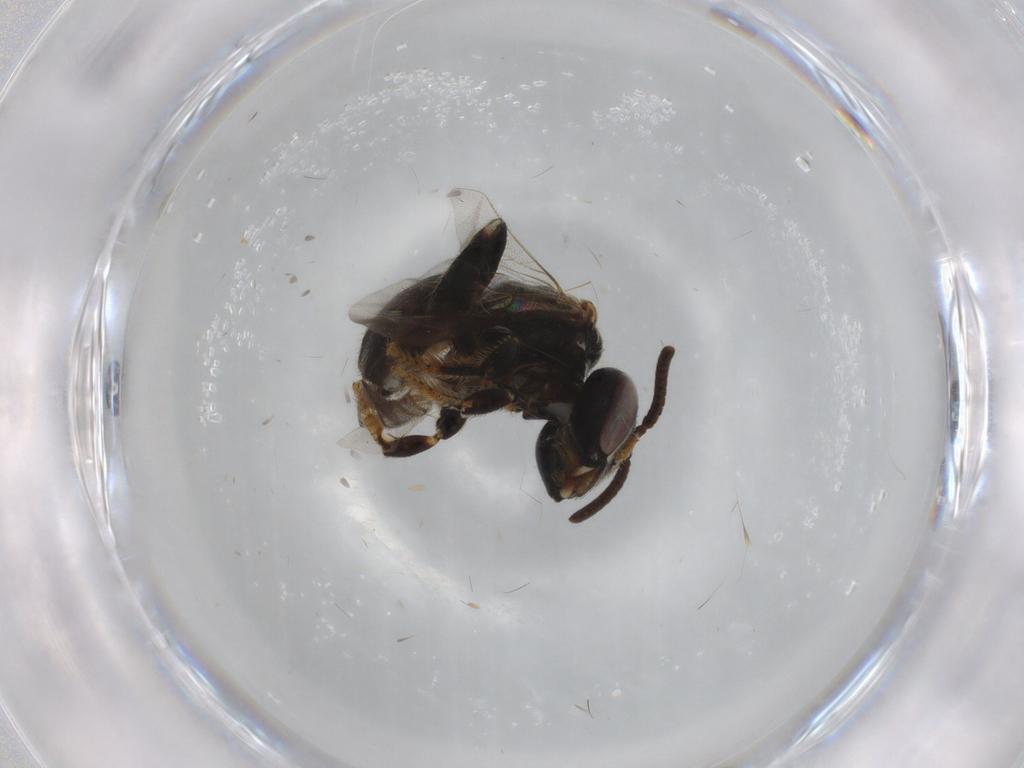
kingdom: Animalia
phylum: Arthropoda
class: Insecta
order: Hymenoptera
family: Apidae
